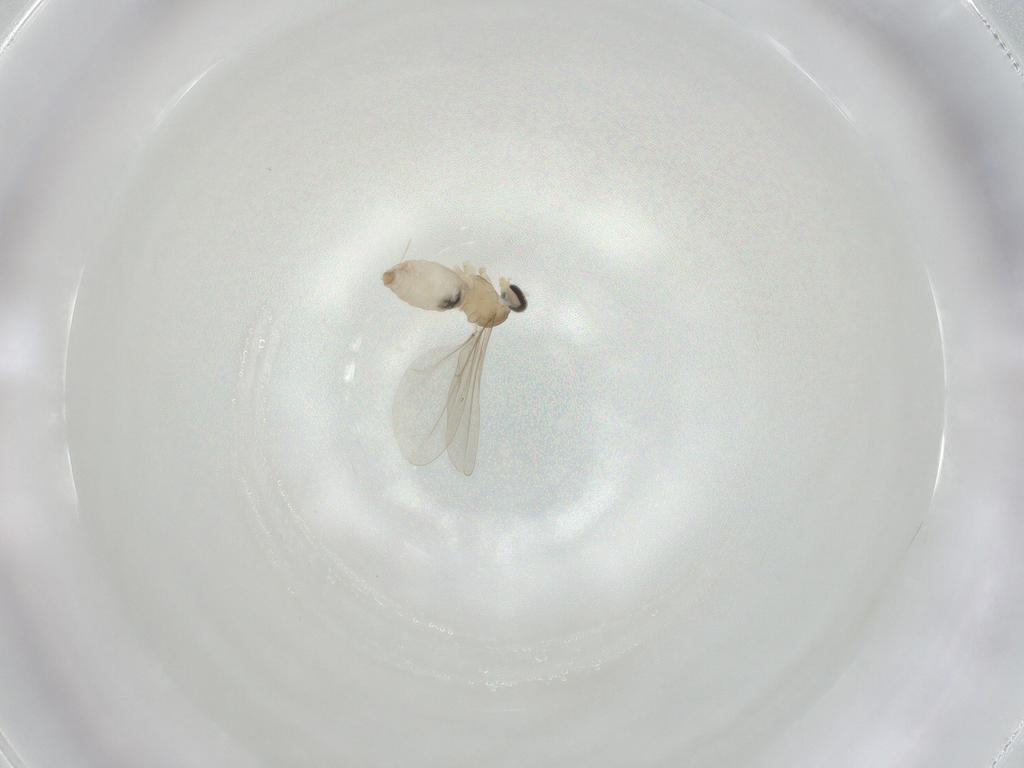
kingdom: Animalia
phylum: Arthropoda
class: Insecta
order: Diptera
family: Cecidomyiidae
